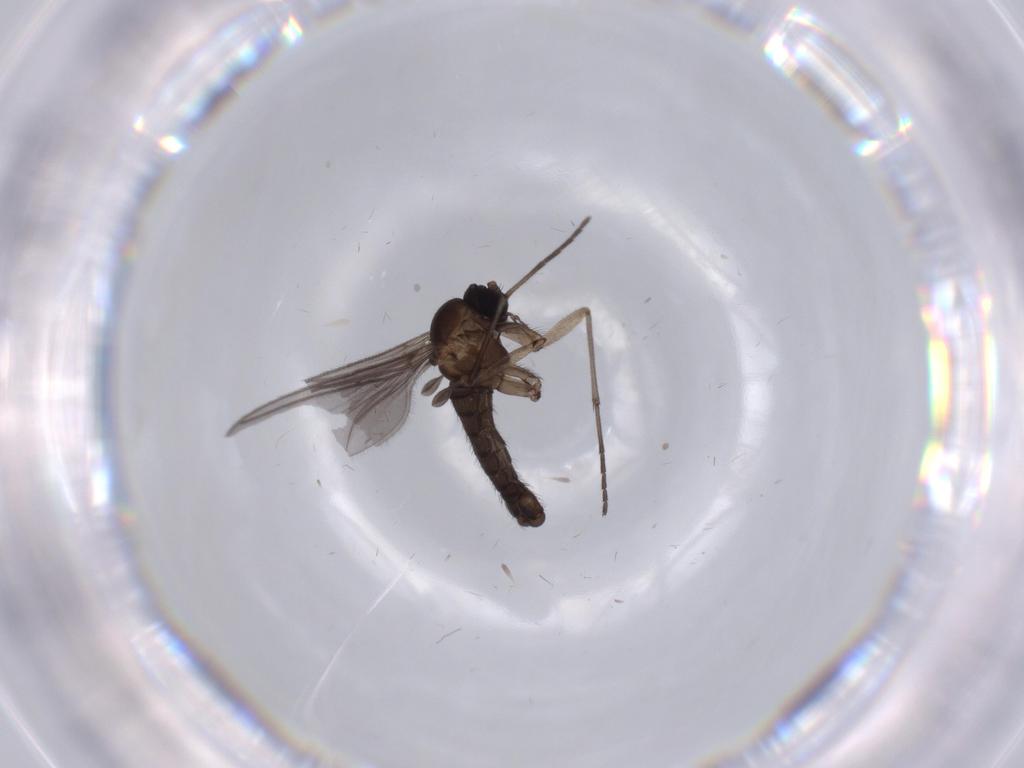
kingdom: Animalia
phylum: Arthropoda
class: Insecta
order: Diptera
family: Sciaridae
